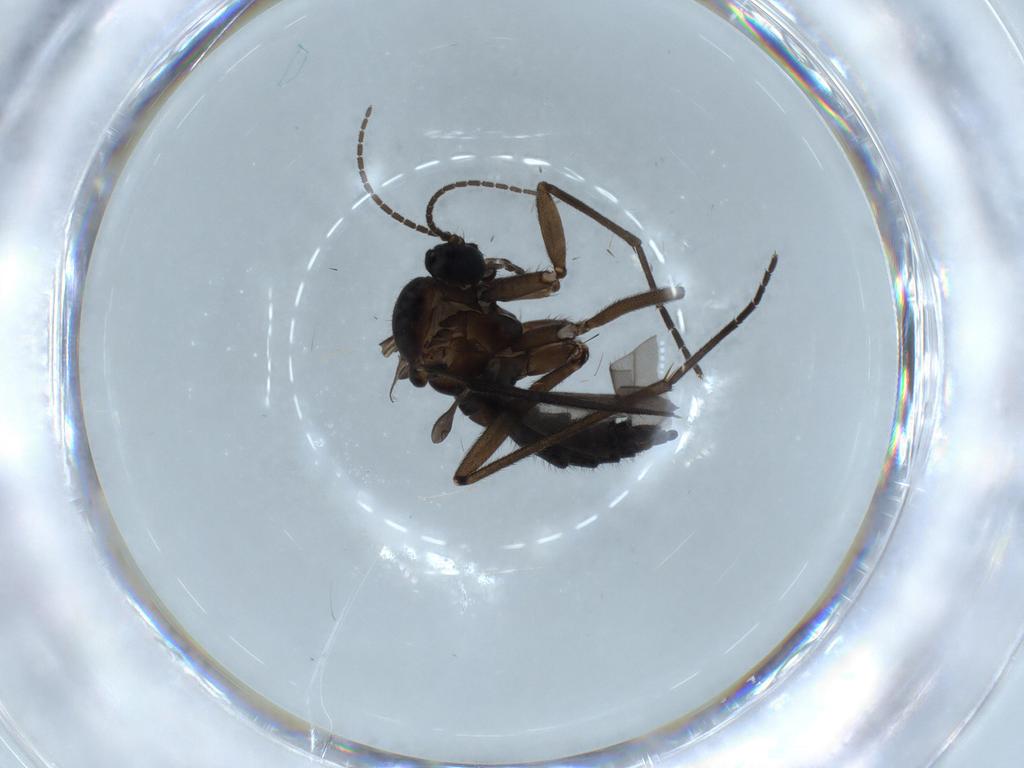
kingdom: Animalia
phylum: Arthropoda
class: Insecta
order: Diptera
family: Sciaridae
